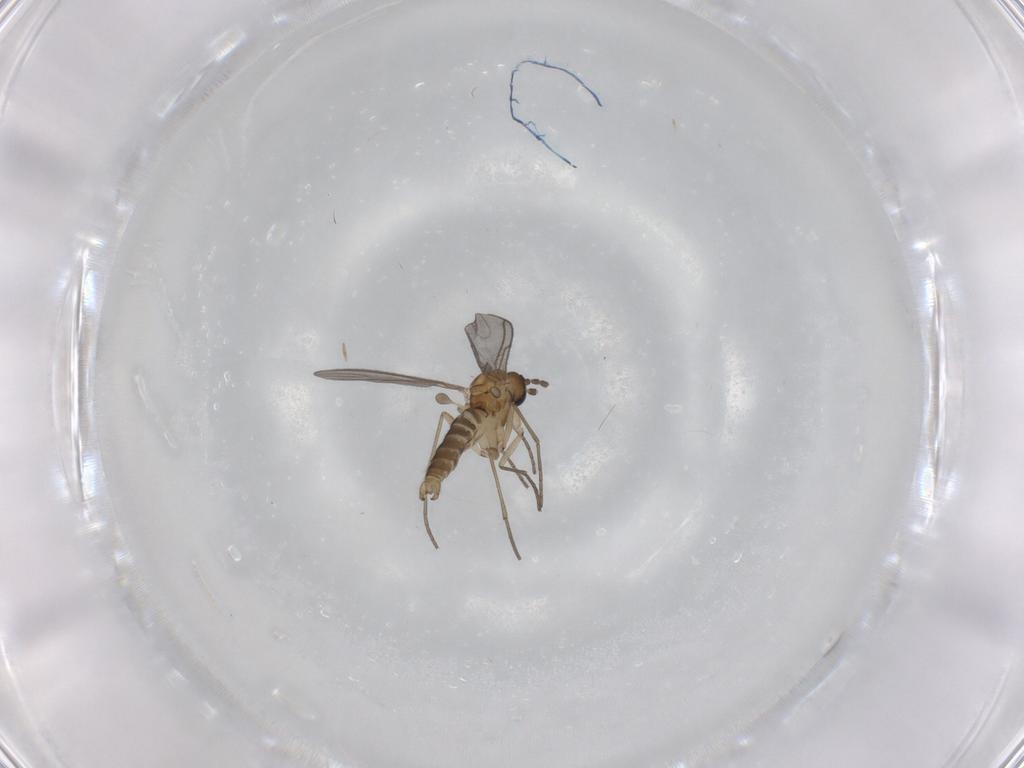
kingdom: Animalia
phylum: Arthropoda
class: Insecta
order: Diptera
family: Sciaridae
